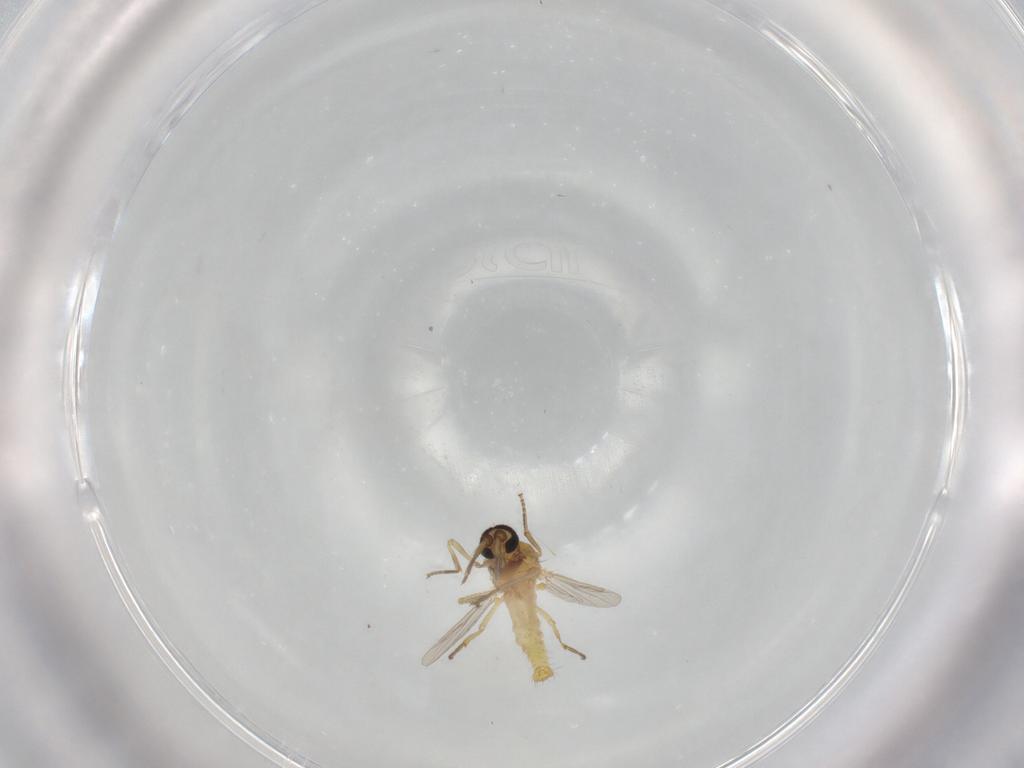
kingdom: Animalia
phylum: Arthropoda
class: Insecta
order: Diptera
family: Ceratopogonidae
